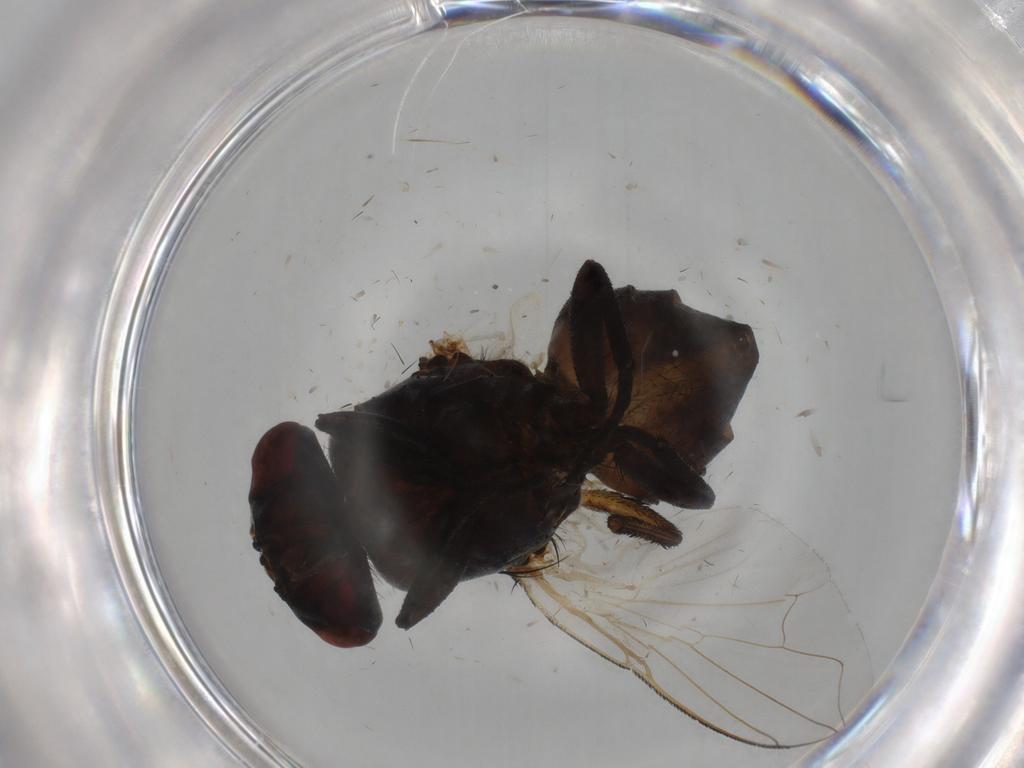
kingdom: Animalia
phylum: Arthropoda
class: Insecta
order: Diptera
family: Muscidae
